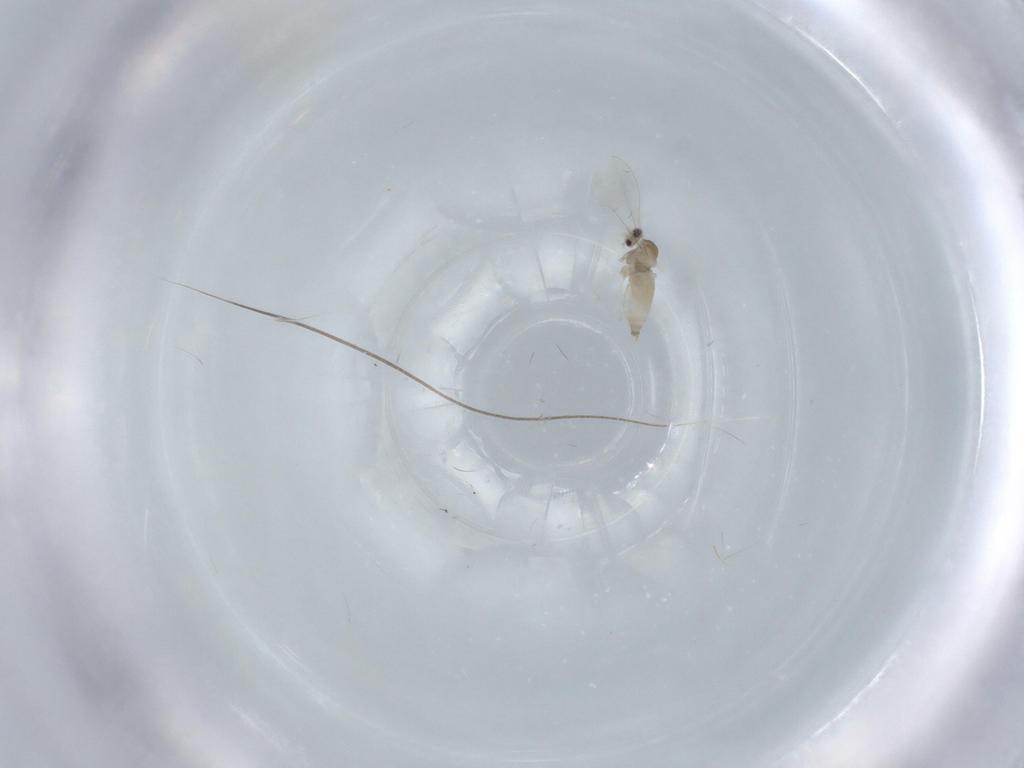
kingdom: Animalia
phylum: Arthropoda
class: Insecta
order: Diptera
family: Cecidomyiidae
